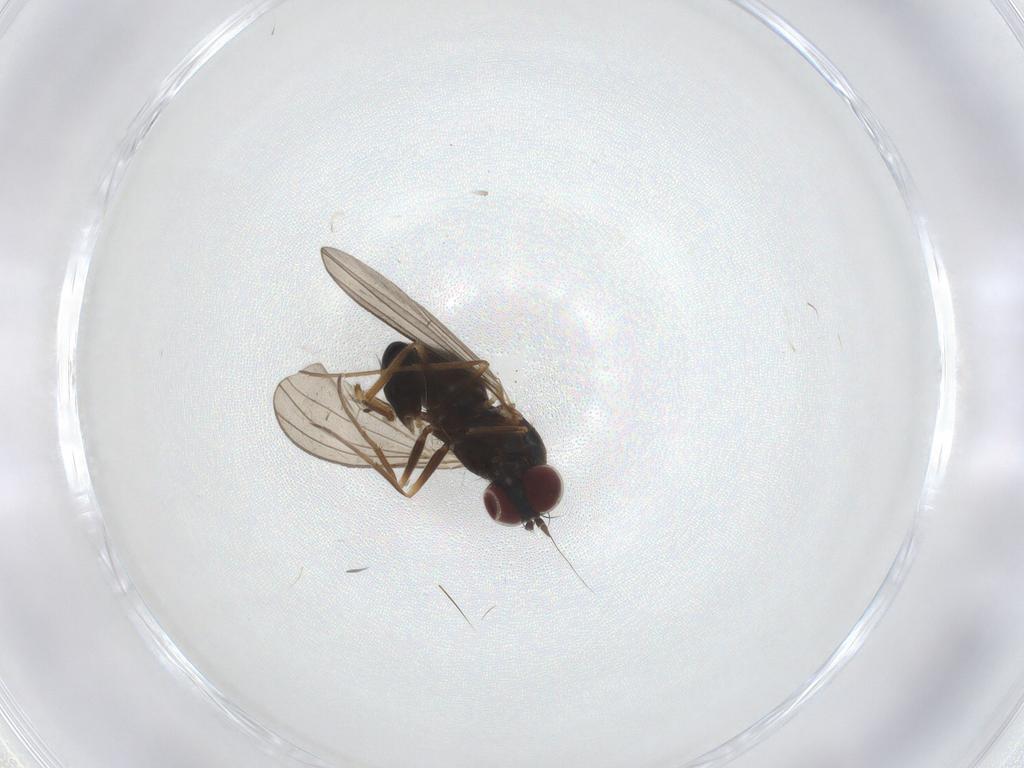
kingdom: Animalia
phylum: Arthropoda
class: Insecta
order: Diptera
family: Dolichopodidae
